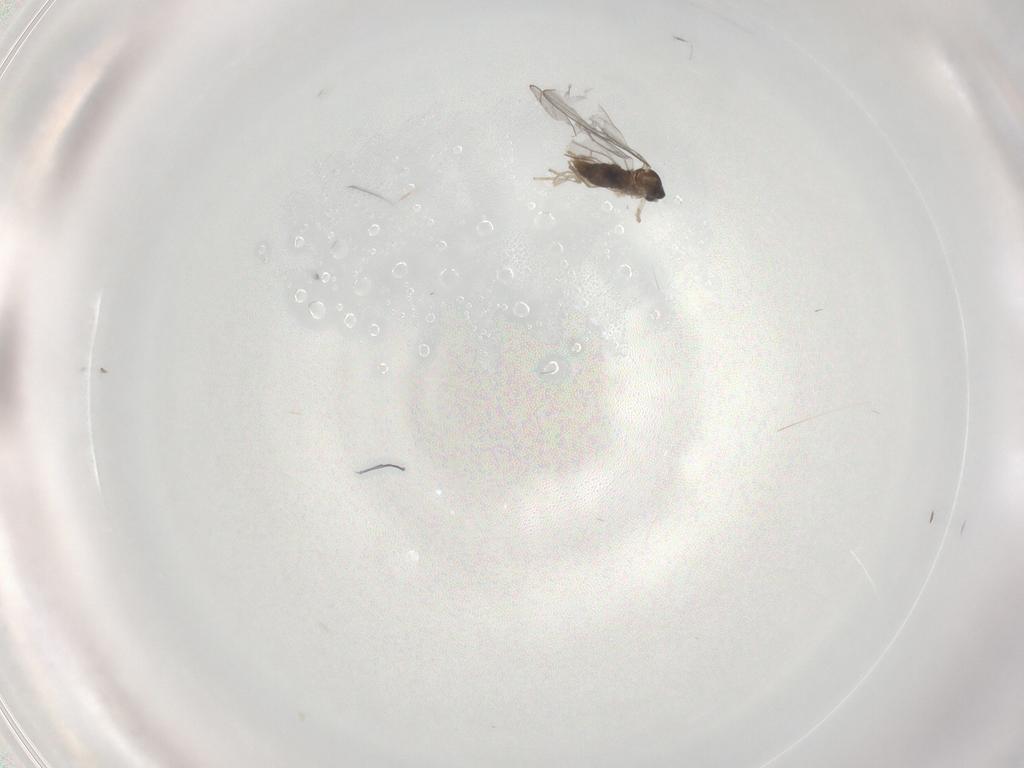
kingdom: Animalia
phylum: Arthropoda
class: Insecta
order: Diptera
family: Cecidomyiidae
